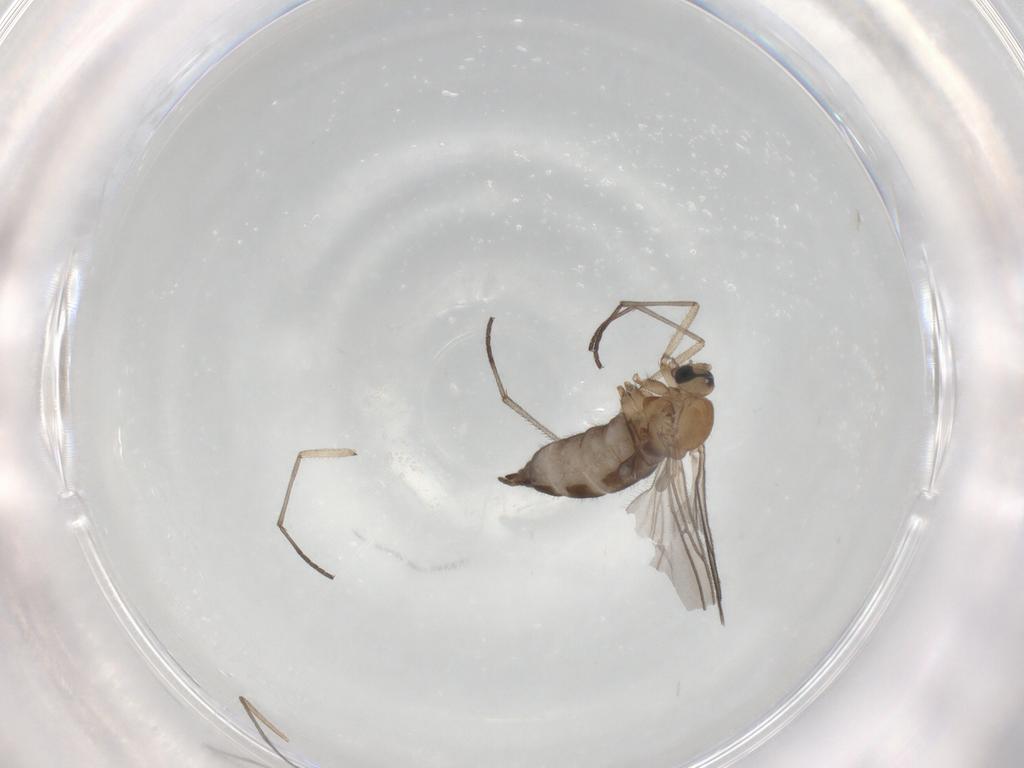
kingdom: Animalia
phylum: Arthropoda
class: Insecta
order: Diptera
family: Sciaridae
